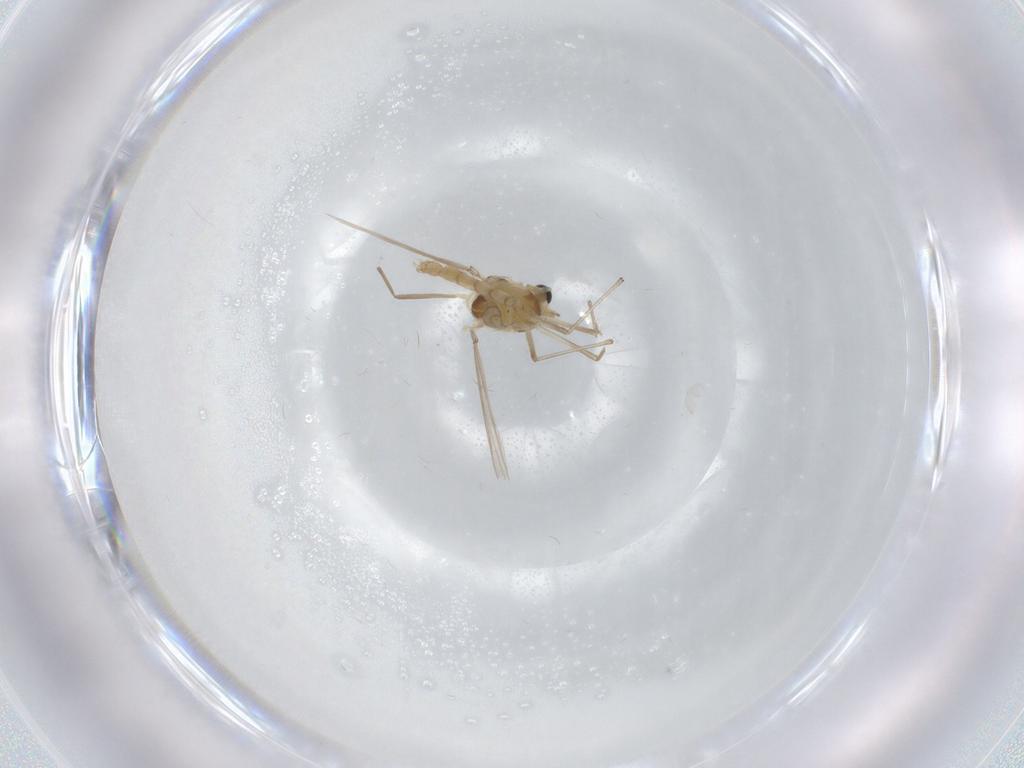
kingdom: Animalia
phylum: Arthropoda
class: Insecta
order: Diptera
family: Chironomidae
